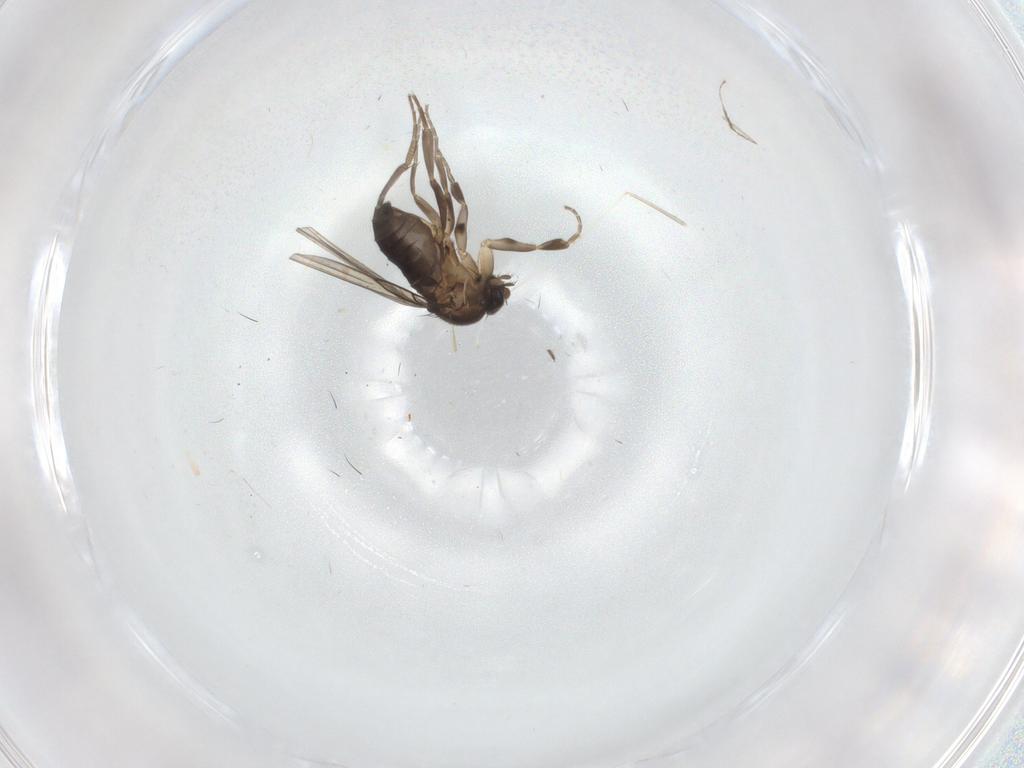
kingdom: Animalia
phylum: Arthropoda
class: Insecta
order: Diptera
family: Phoridae
